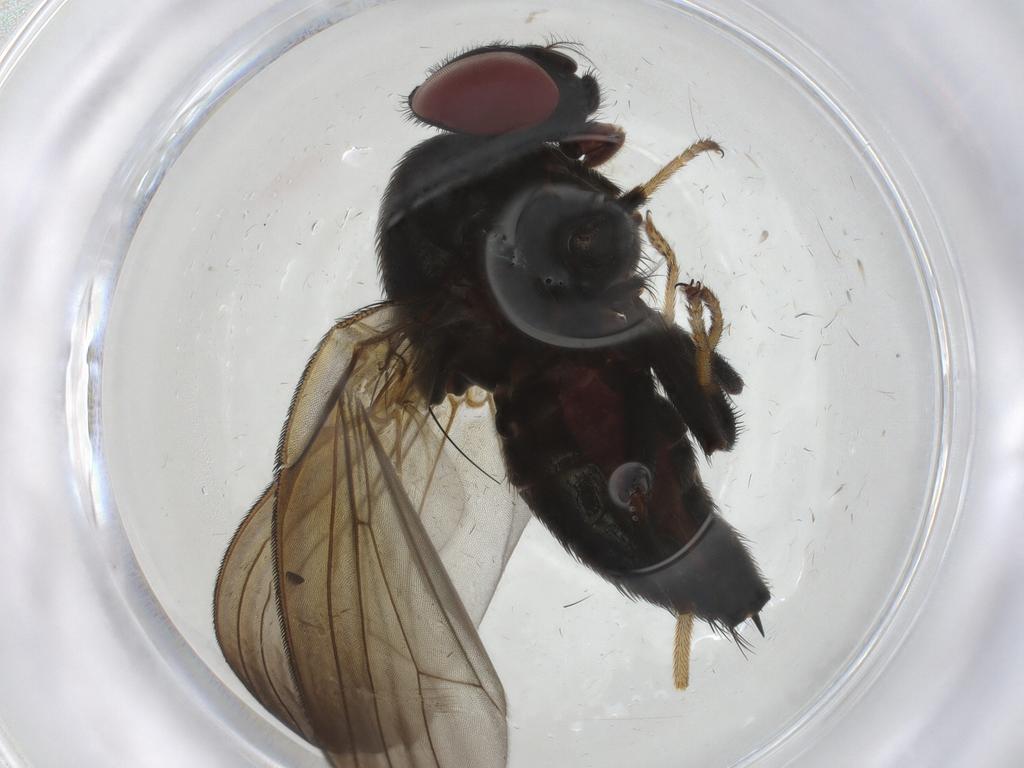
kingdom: Animalia
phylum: Arthropoda
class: Insecta
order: Diptera
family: Lonchaeidae
